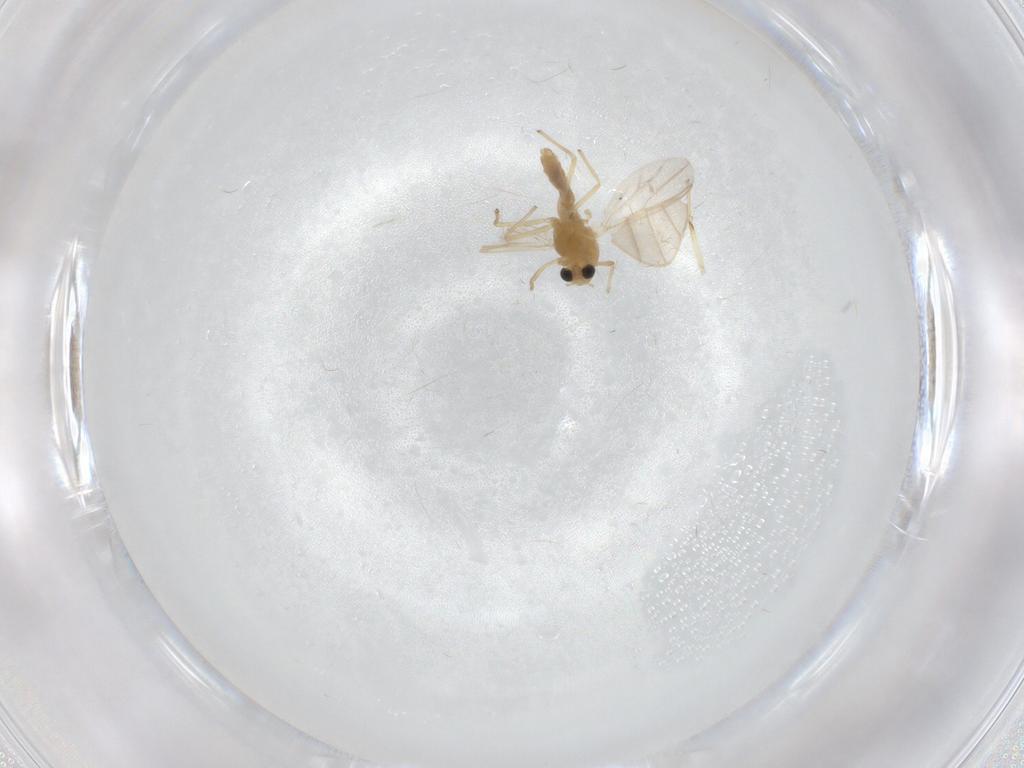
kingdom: Animalia
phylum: Arthropoda
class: Insecta
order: Diptera
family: Chironomidae
